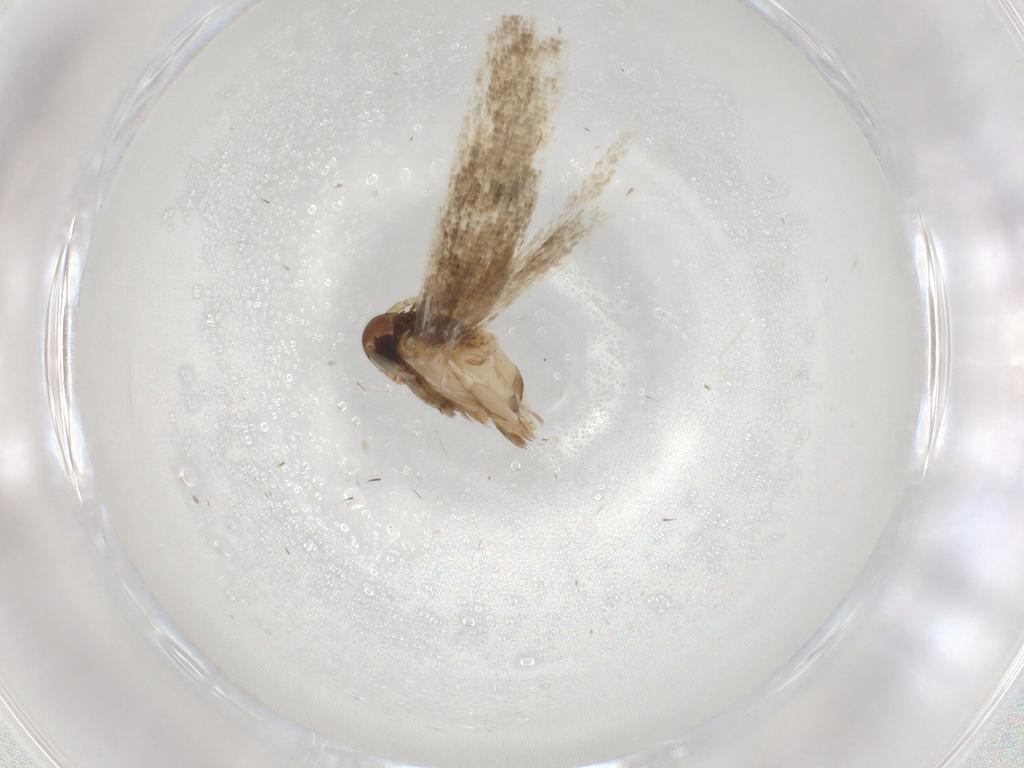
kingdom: Animalia
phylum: Arthropoda
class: Insecta
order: Lepidoptera
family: Cosmopterigidae
